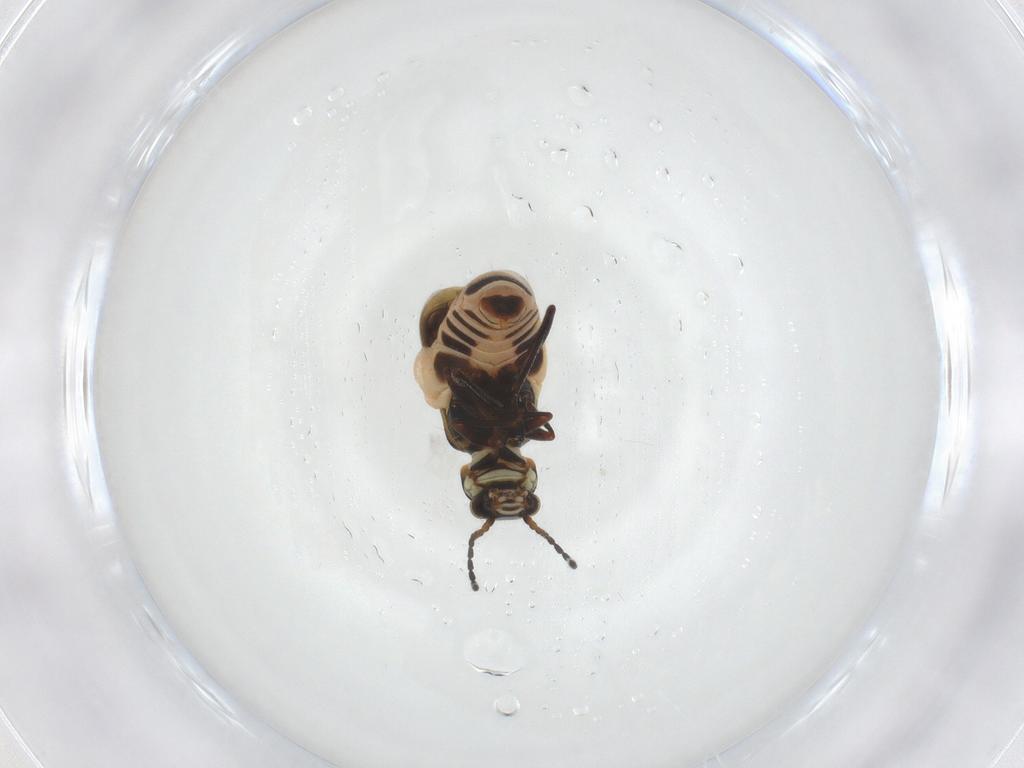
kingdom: Animalia
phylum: Arthropoda
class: Insecta
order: Coleoptera
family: Melyridae
